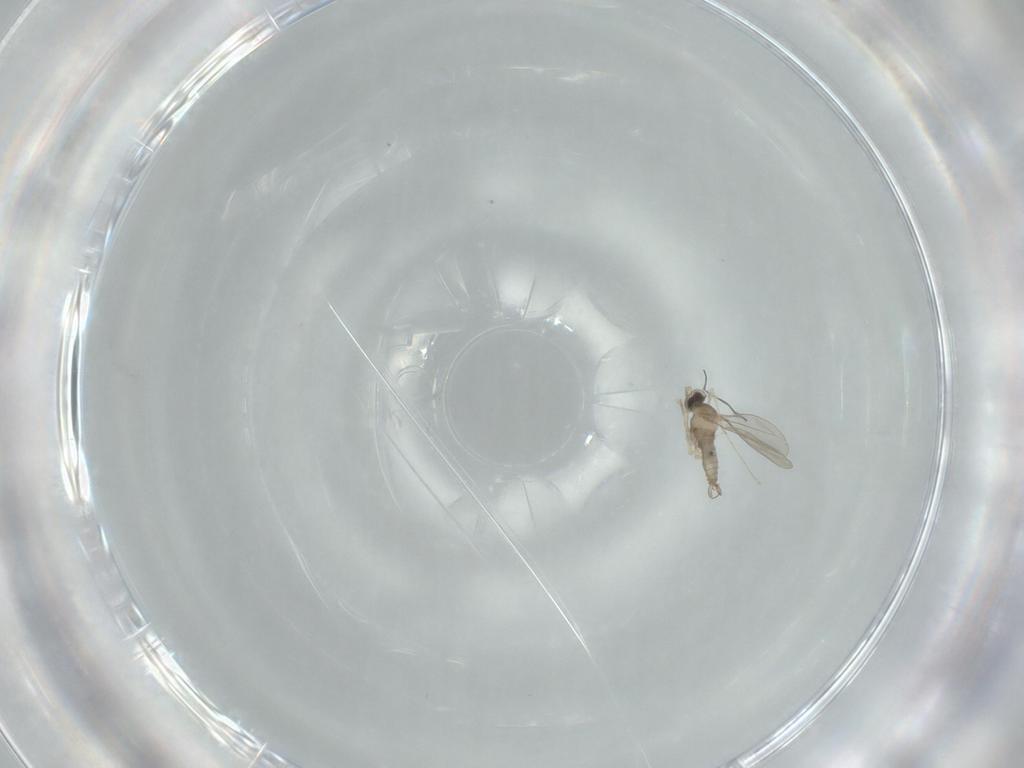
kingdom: Animalia
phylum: Arthropoda
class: Insecta
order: Diptera
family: Cecidomyiidae
